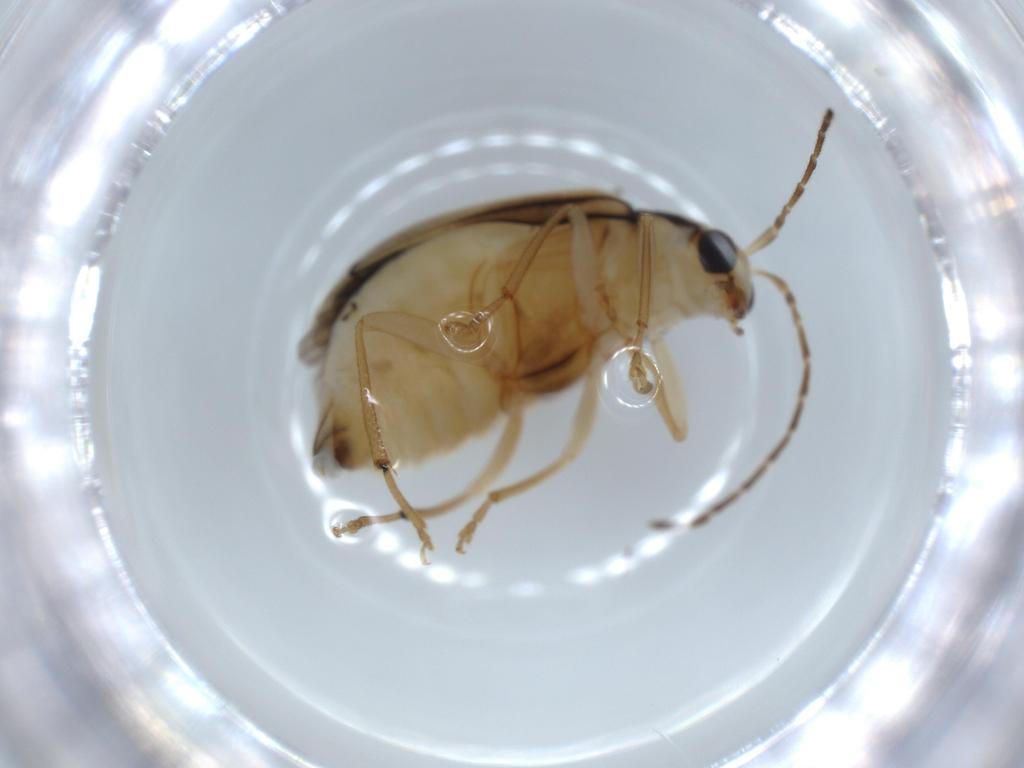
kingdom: Animalia
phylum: Arthropoda
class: Insecta
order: Coleoptera
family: Chrysomelidae
